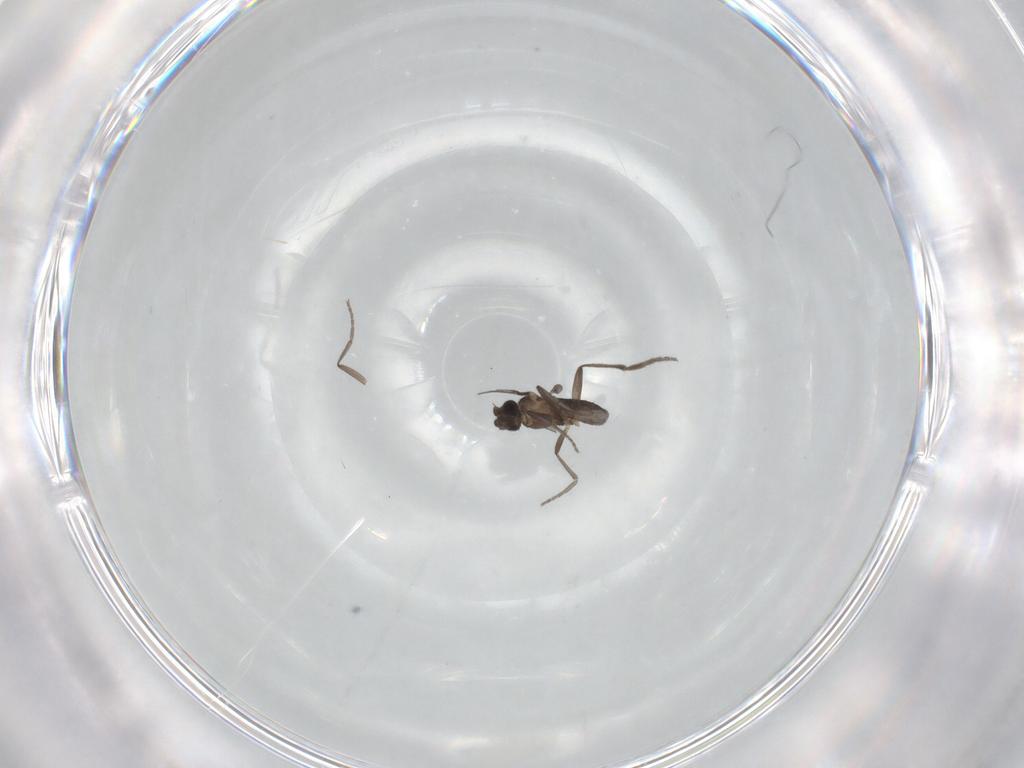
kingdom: Animalia
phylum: Arthropoda
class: Insecta
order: Diptera
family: Phoridae
